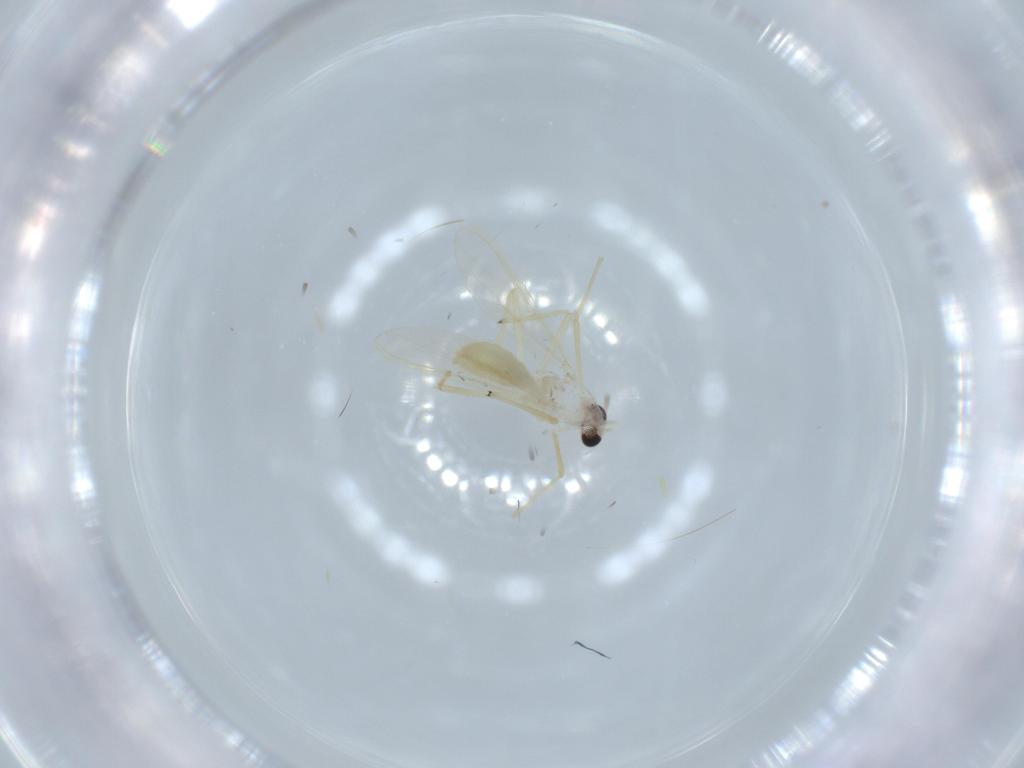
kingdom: Animalia
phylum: Arthropoda
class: Insecta
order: Diptera
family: Chironomidae
